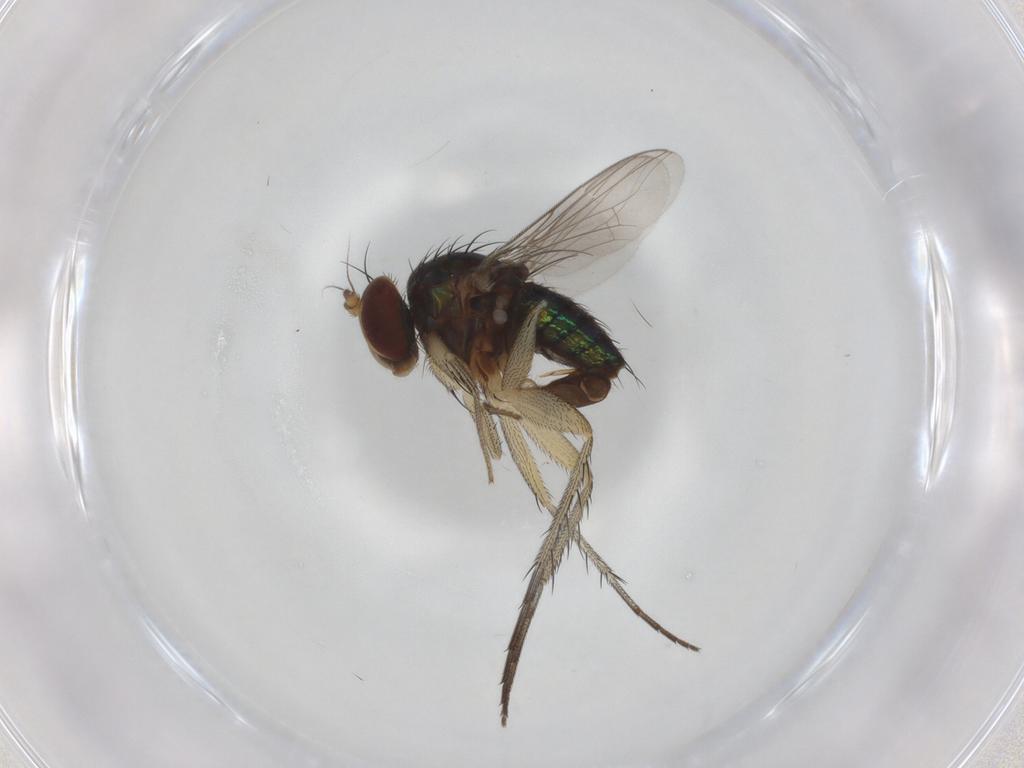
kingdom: Animalia
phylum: Arthropoda
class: Insecta
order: Diptera
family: Dolichopodidae
